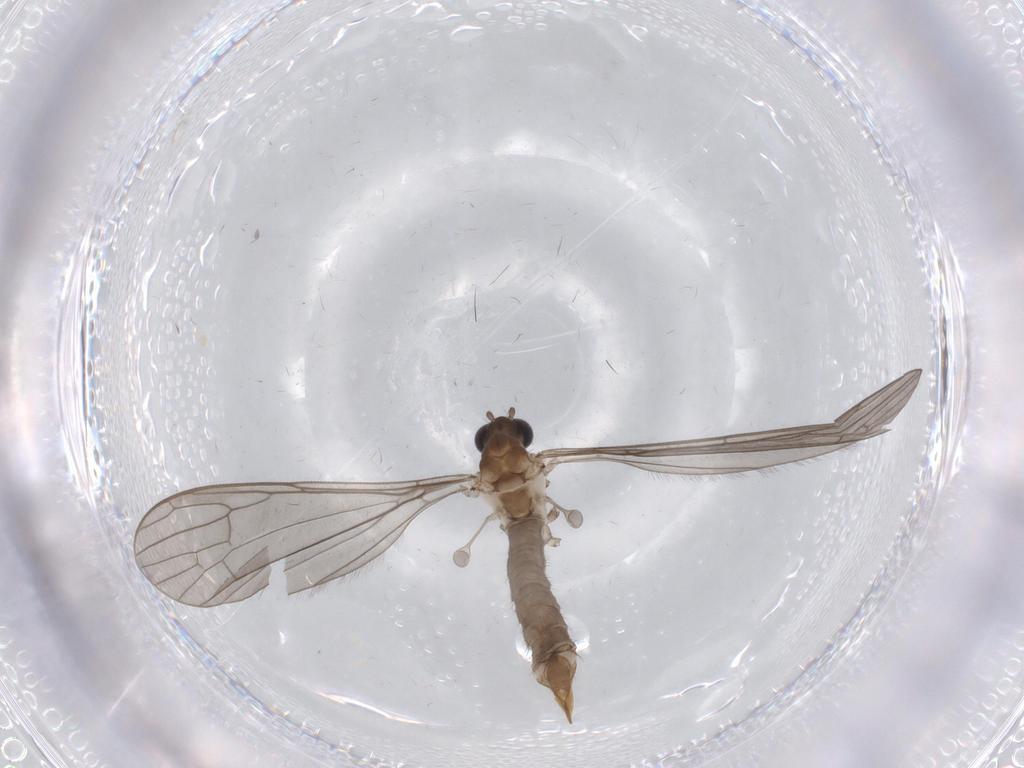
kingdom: Animalia
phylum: Arthropoda
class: Insecta
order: Diptera
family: Cecidomyiidae
